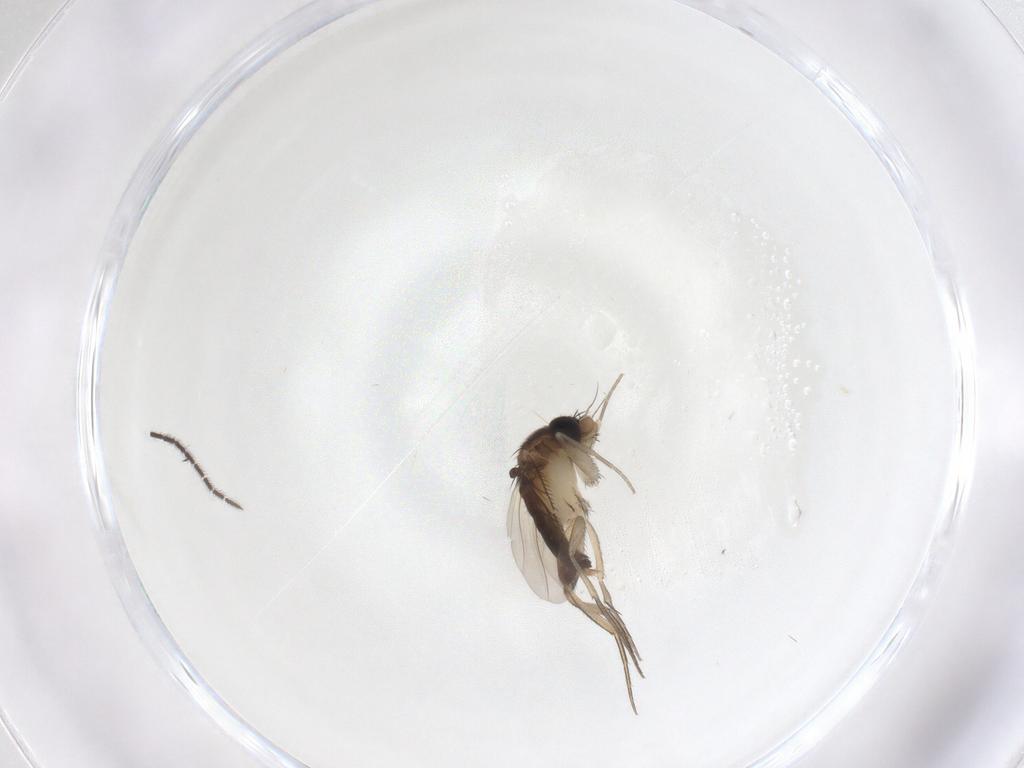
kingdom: Animalia
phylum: Arthropoda
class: Insecta
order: Diptera
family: Phoridae
